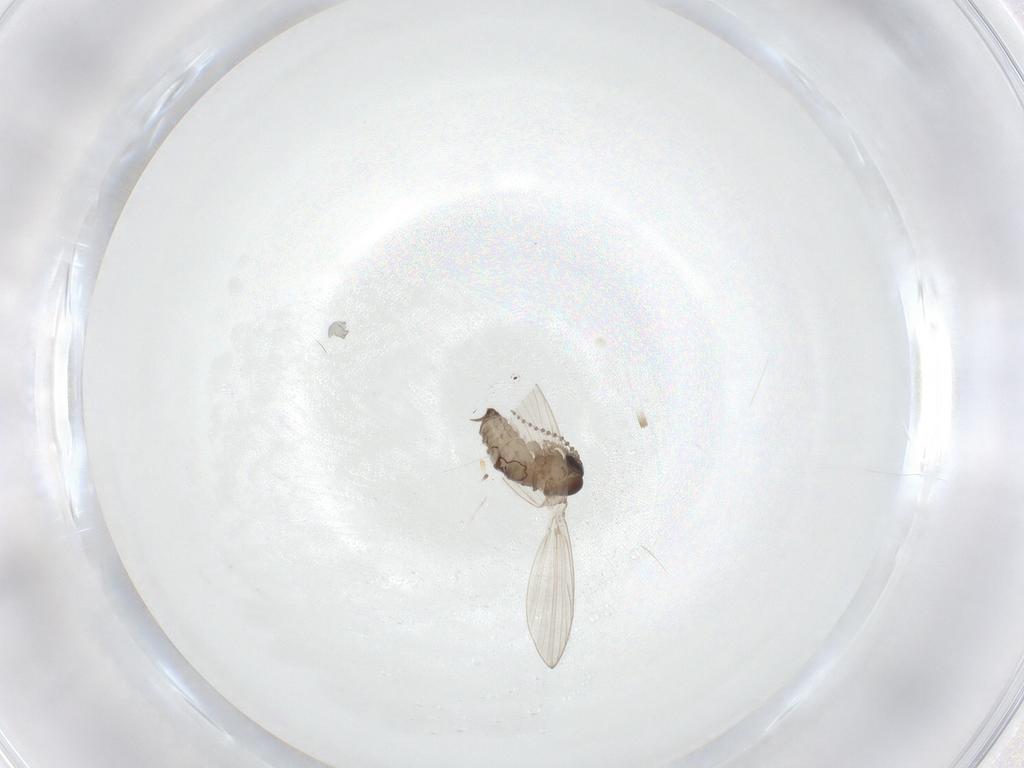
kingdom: Animalia
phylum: Arthropoda
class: Insecta
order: Diptera
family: Psychodidae
